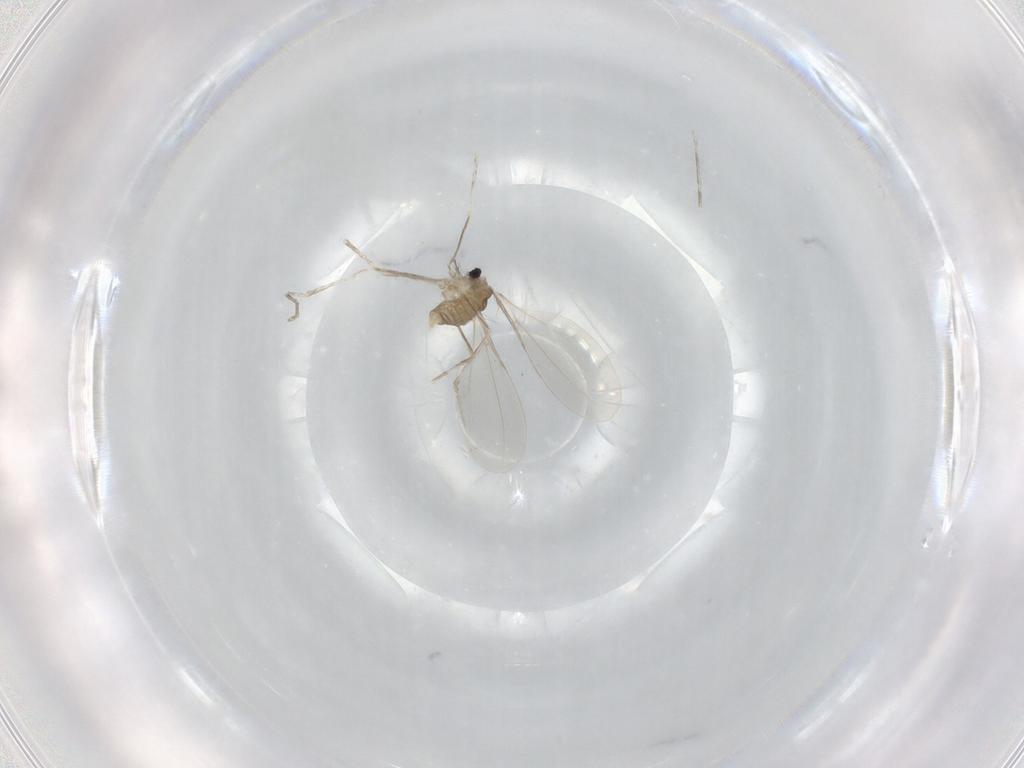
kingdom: Animalia
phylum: Arthropoda
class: Insecta
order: Diptera
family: Cecidomyiidae
